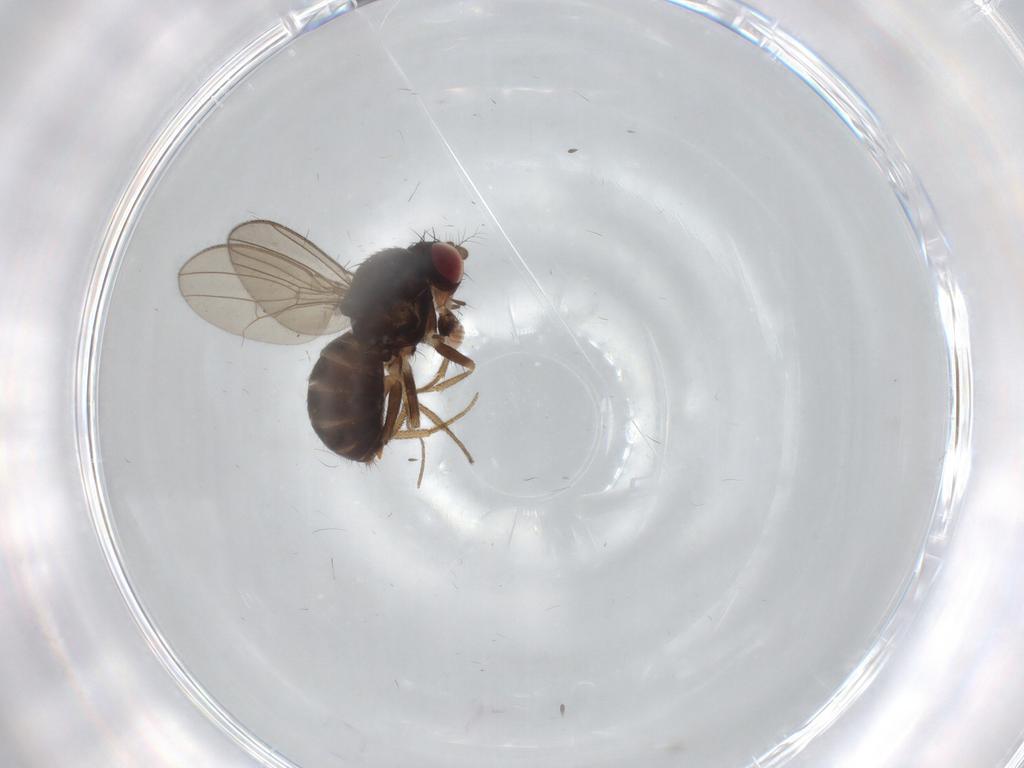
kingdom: Animalia
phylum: Arthropoda
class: Insecta
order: Diptera
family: Drosophilidae
